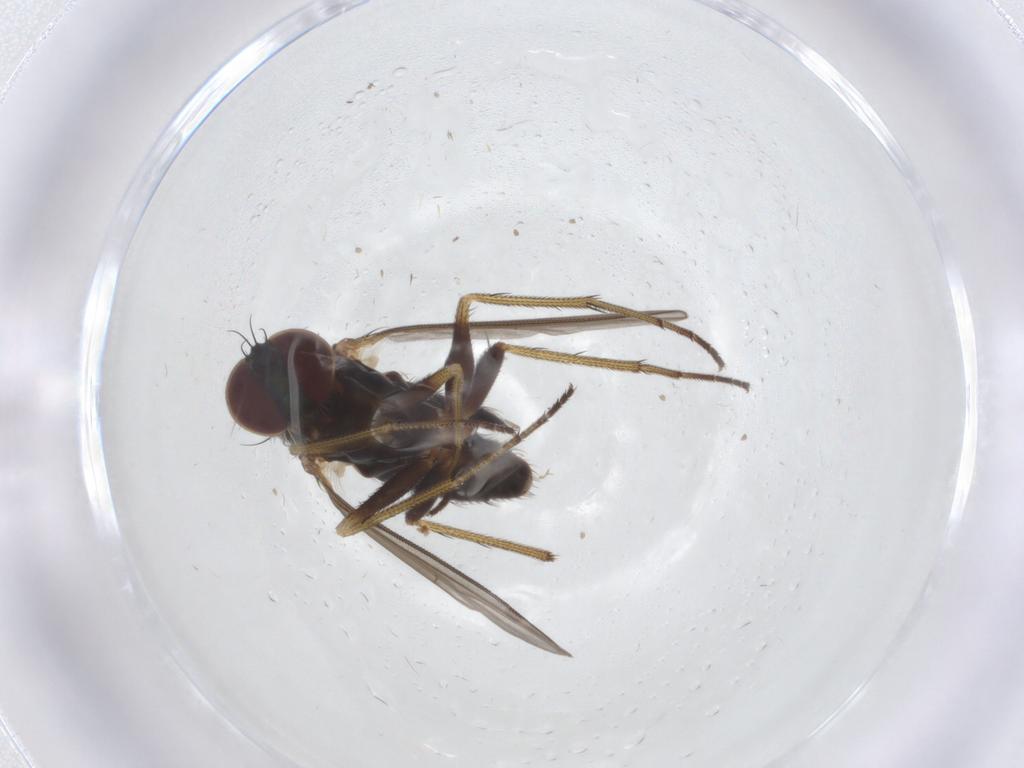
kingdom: Animalia
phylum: Arthropoda
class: Insecta
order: Diptera
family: Dolichopodidae
